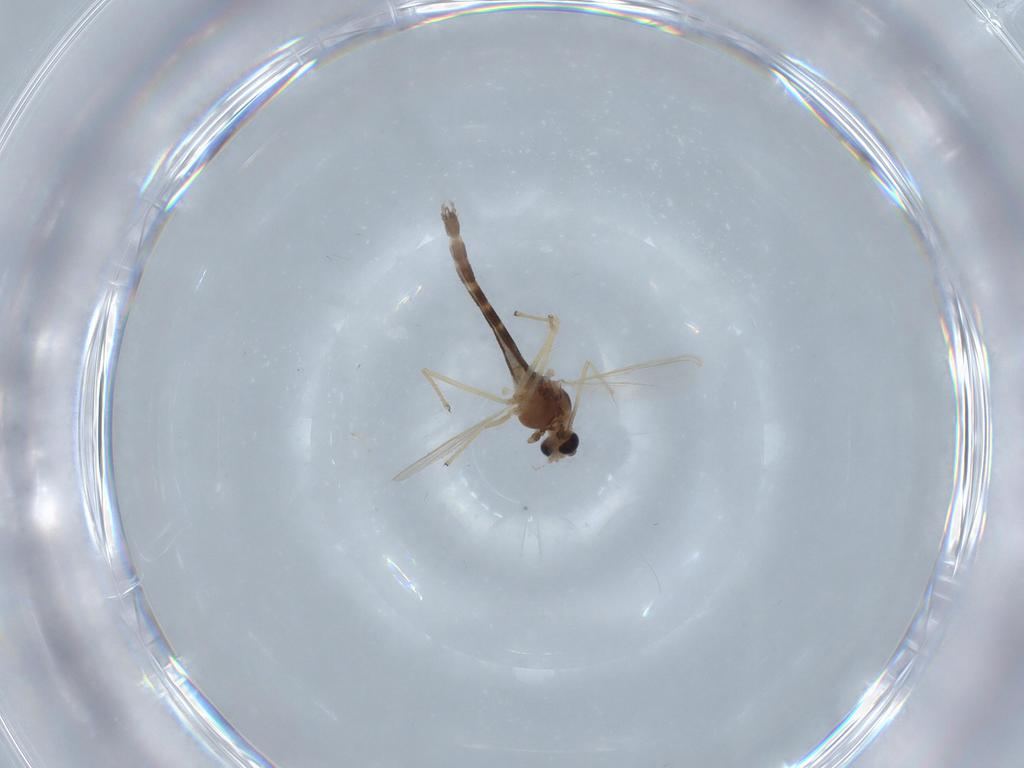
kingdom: Animalia
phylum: Arthropoda
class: Insecta
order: Diptera
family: Chironomidae
